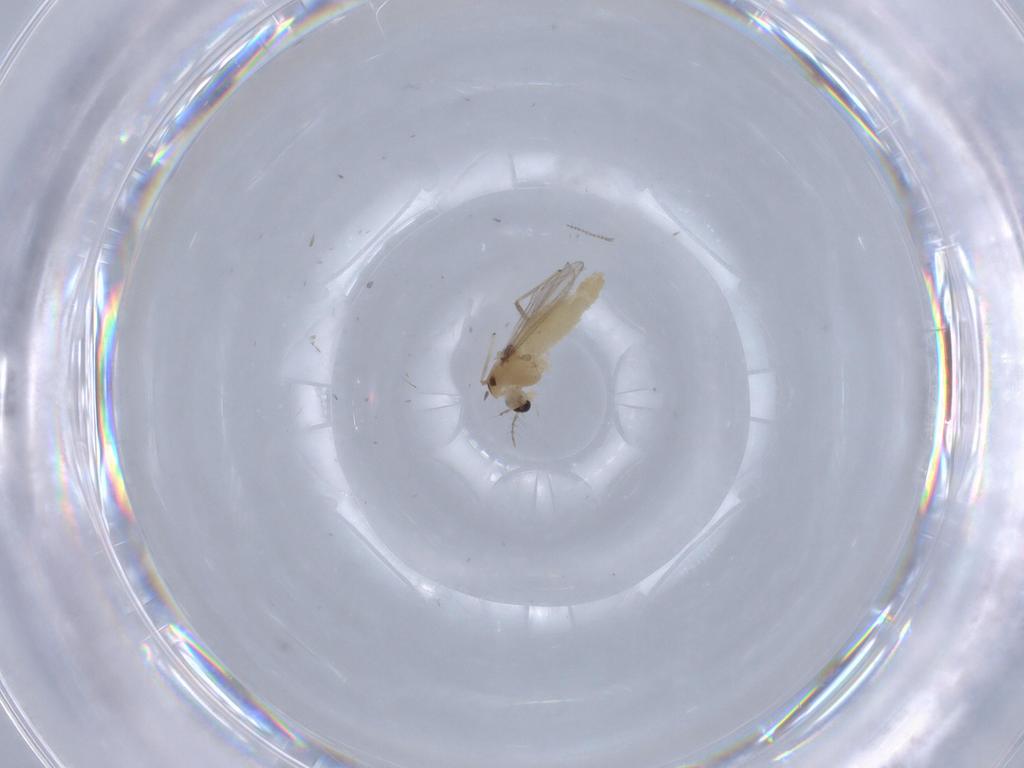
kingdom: Animalia
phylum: Arthropoda
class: Insecta
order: Diptera
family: Chironomidae
